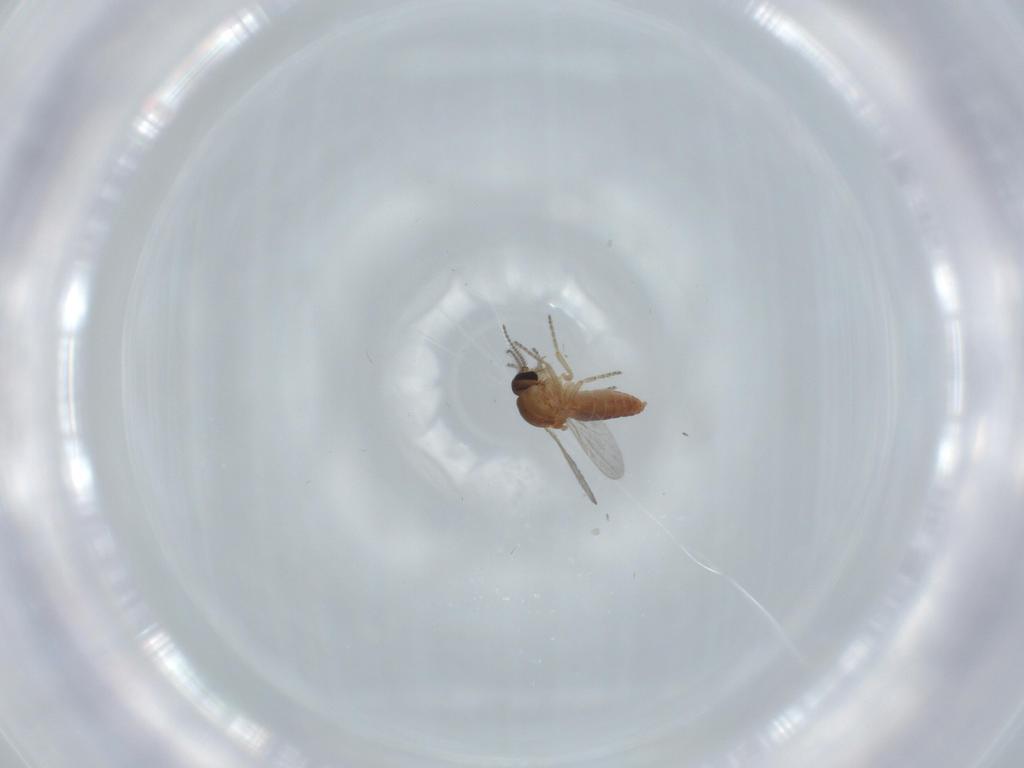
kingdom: Animalia
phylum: Arthropoda
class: Insecta
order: Diptera
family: Ceratopogonidae
